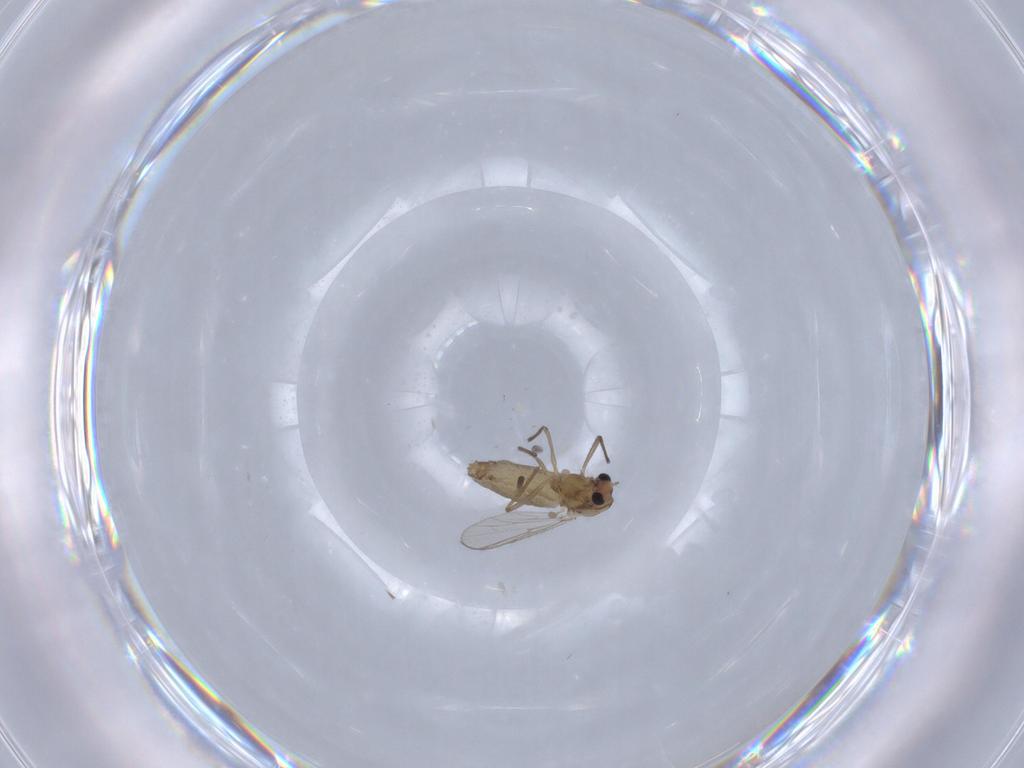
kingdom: Animalia
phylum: Arthropoda
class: Insecta
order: Diptera
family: Chironomidae
